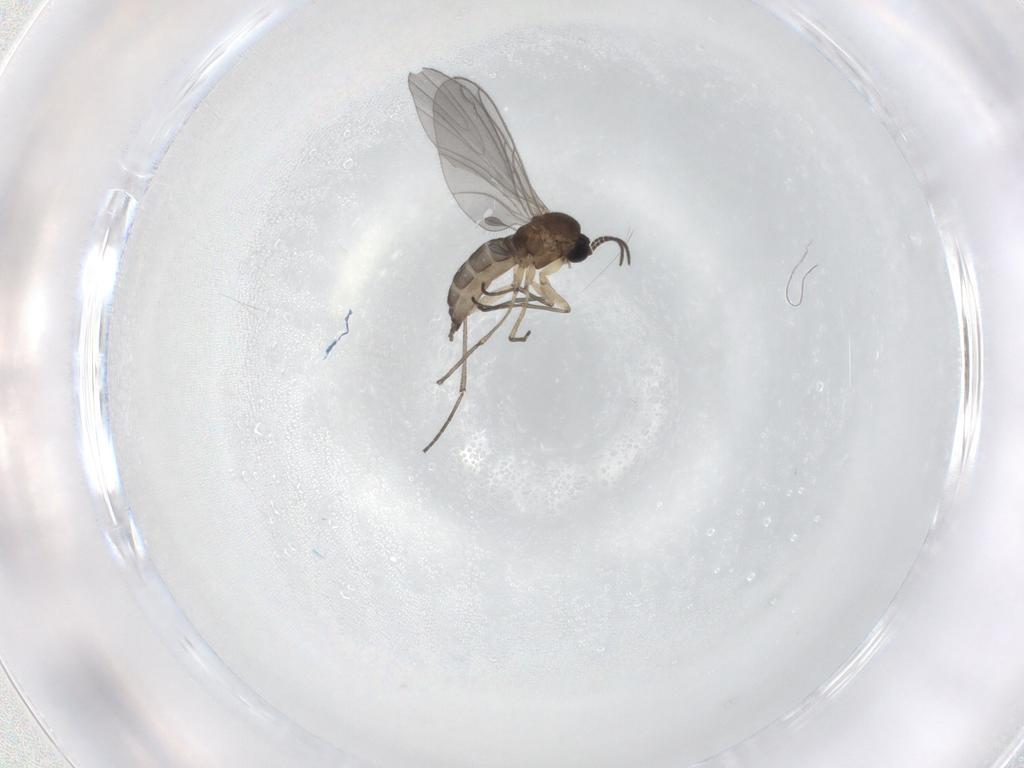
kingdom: Animalia
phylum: Arthropoda
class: Insecta
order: Diptera
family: Sciaridae
